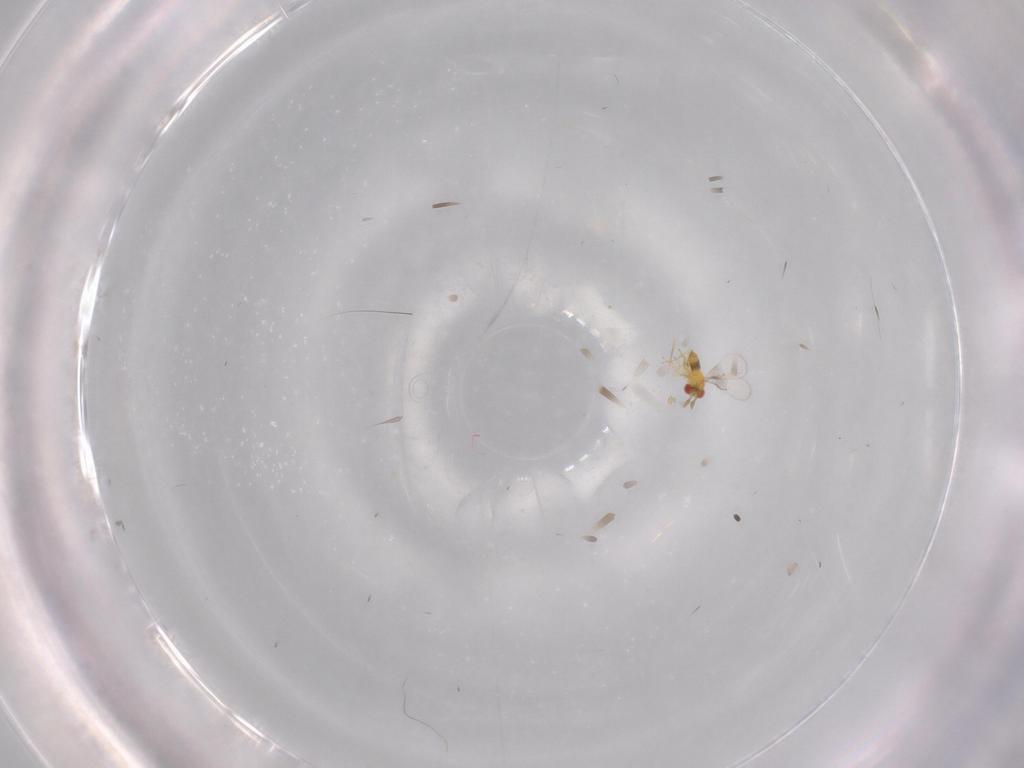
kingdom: Animalia
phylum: Arthropoda
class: Insecta
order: Hymenoptera
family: Trichogrammatidae
